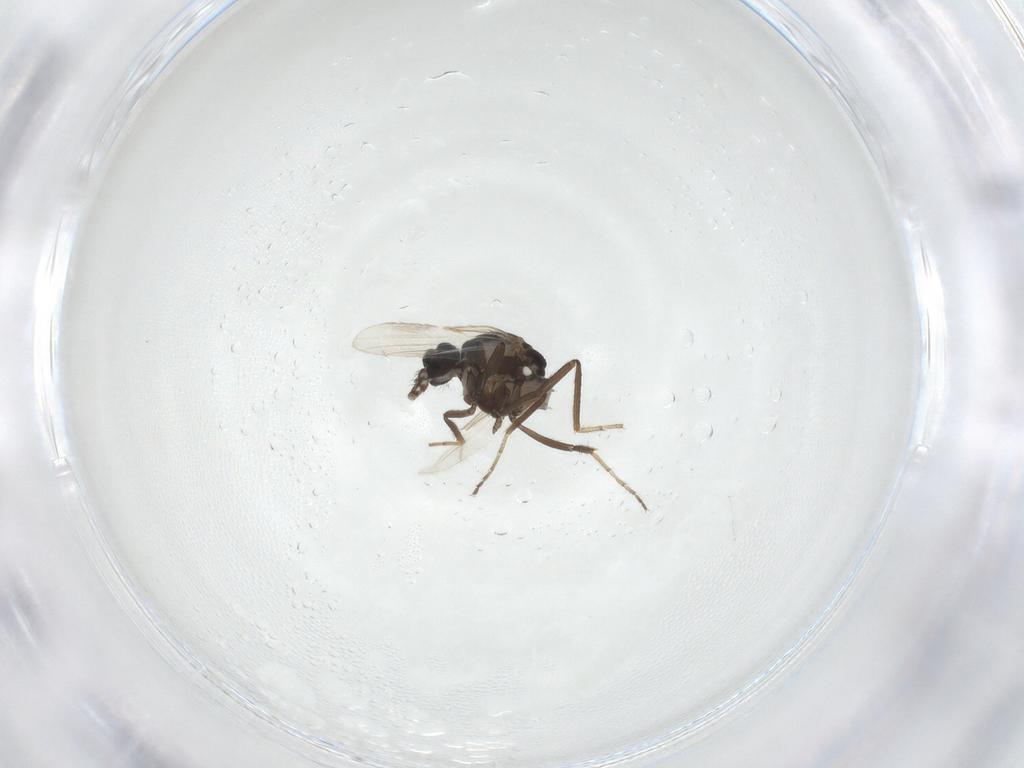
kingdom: Animalia
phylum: Arthropoda
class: Insecta
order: Diptera
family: Ceratopogonidae
